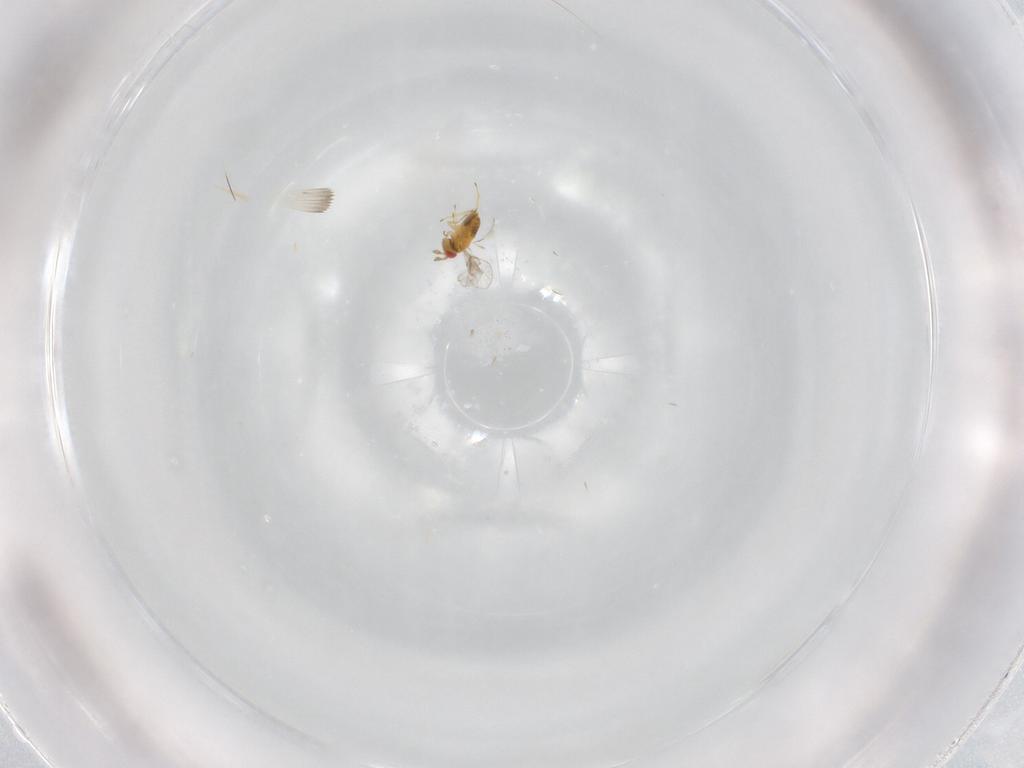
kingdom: Animalia
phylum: Arthropoda
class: Insecta
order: Hymenoptera
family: Trichogrammatidae
